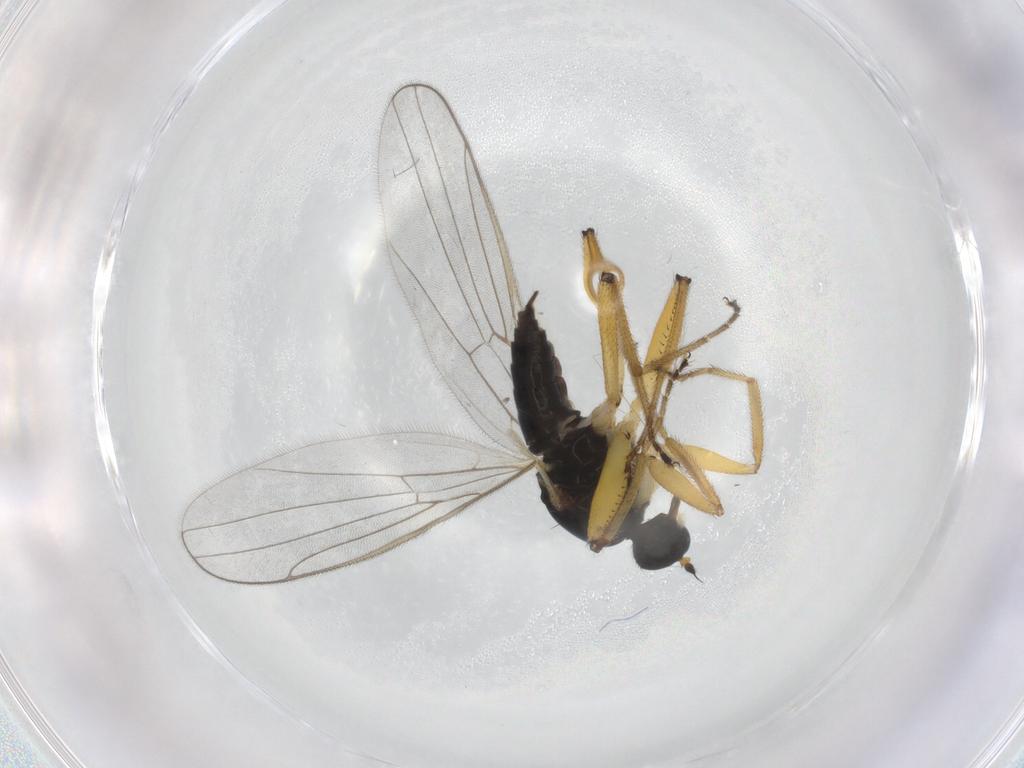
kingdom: Animalia
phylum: Arthropoda
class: Insecta
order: Diptera
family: Hybotidae
